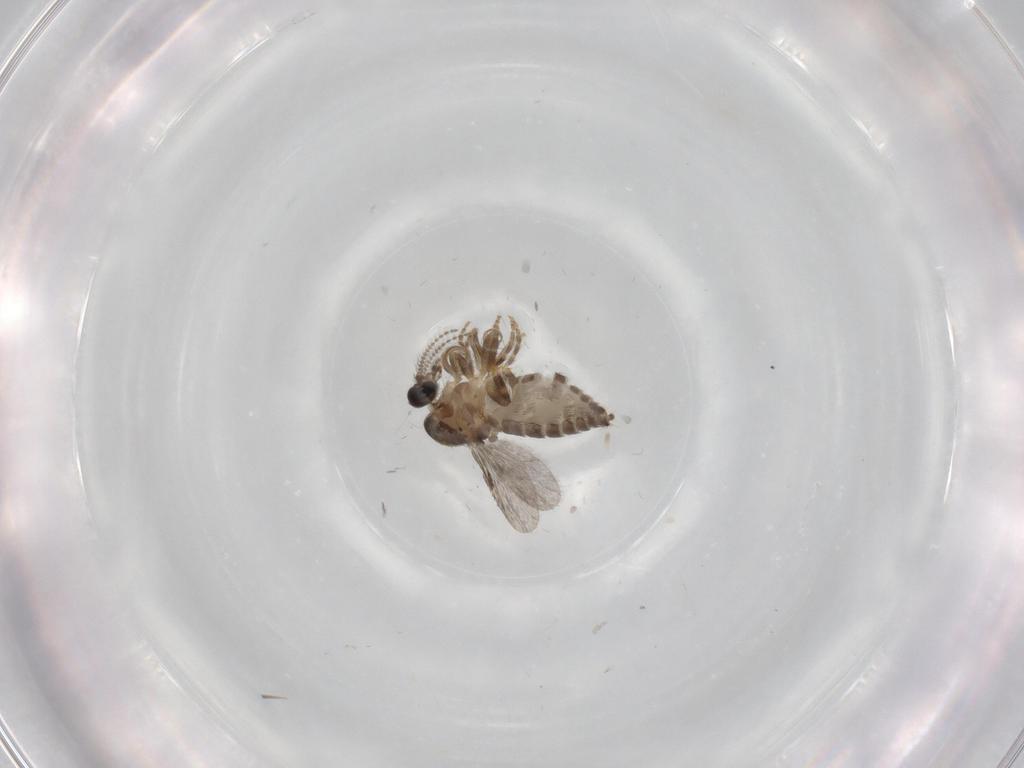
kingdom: Animalia
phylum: Arthropoda
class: Insecta
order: Diptera
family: Ceratopogonidae
